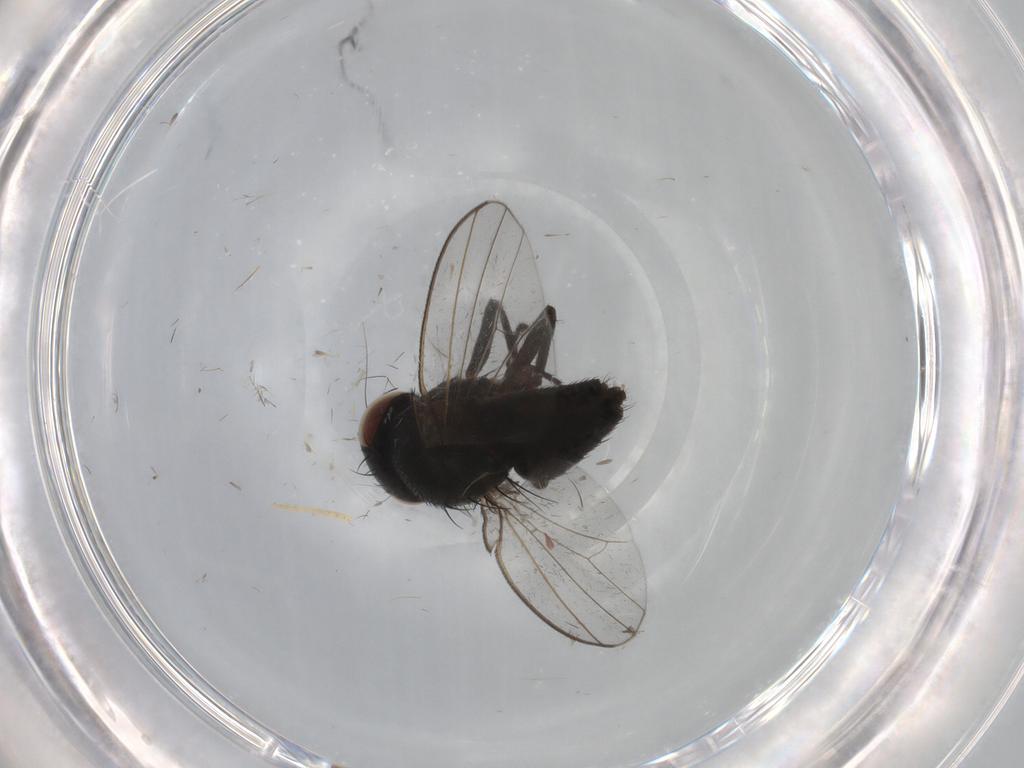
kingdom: Animalia
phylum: Arthropoda
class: Insecta
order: Diptera
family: Milichiidae
